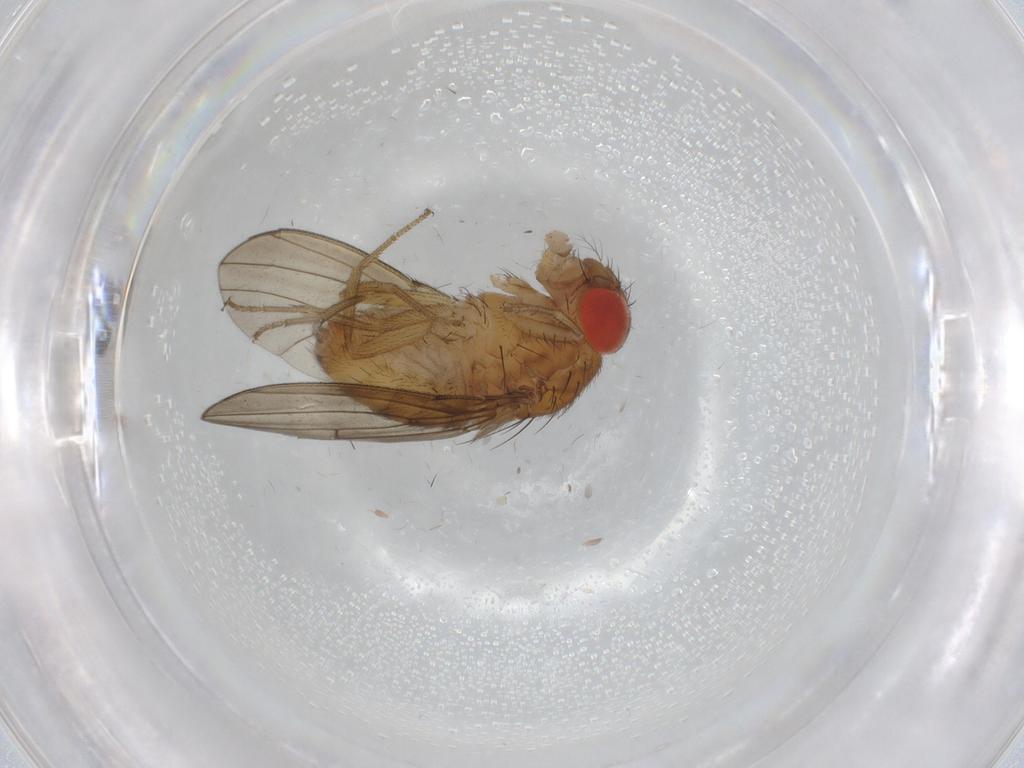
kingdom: Animalia
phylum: Arthropoda
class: Insecta
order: Diptera
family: Drosophilidae
